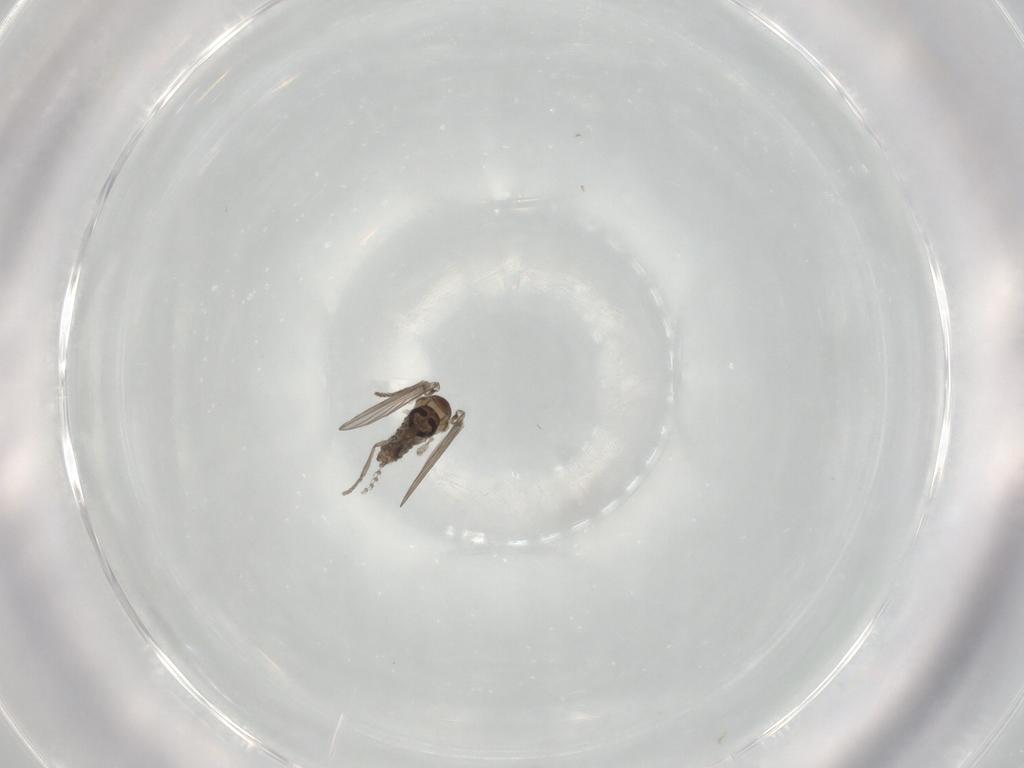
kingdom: Animalia
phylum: Arthropoda
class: Insecta
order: Diptera
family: Psychodidae
